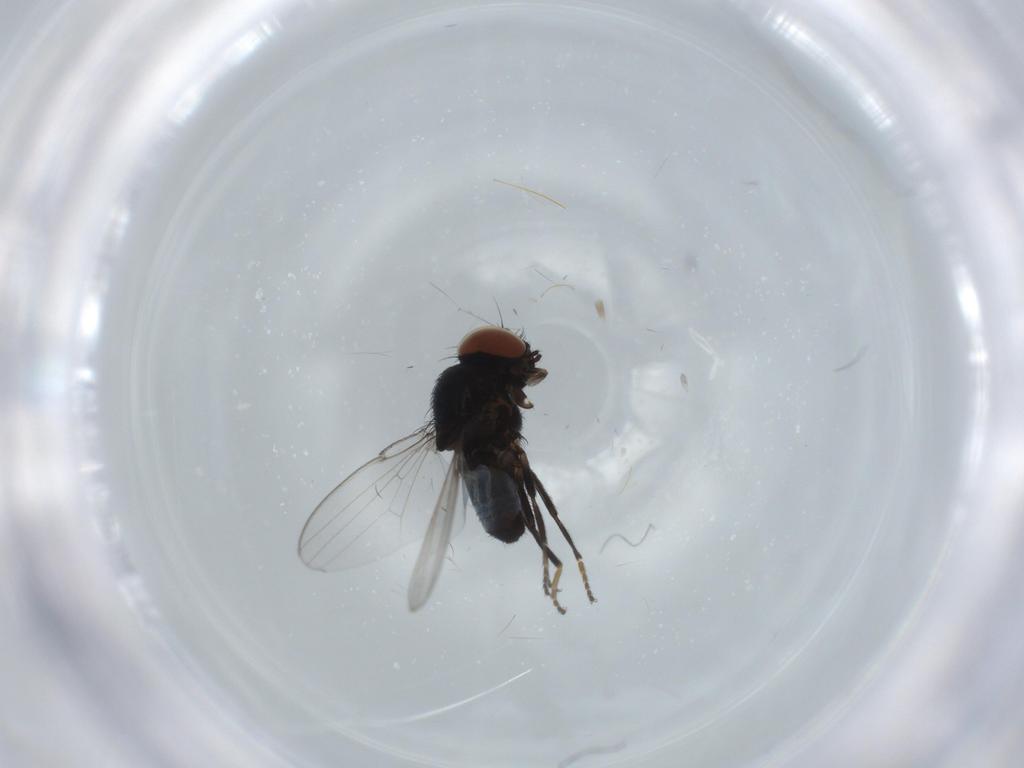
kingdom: Animalia
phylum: Arthropoda
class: Insecta
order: Diptera
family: Milichiidae
